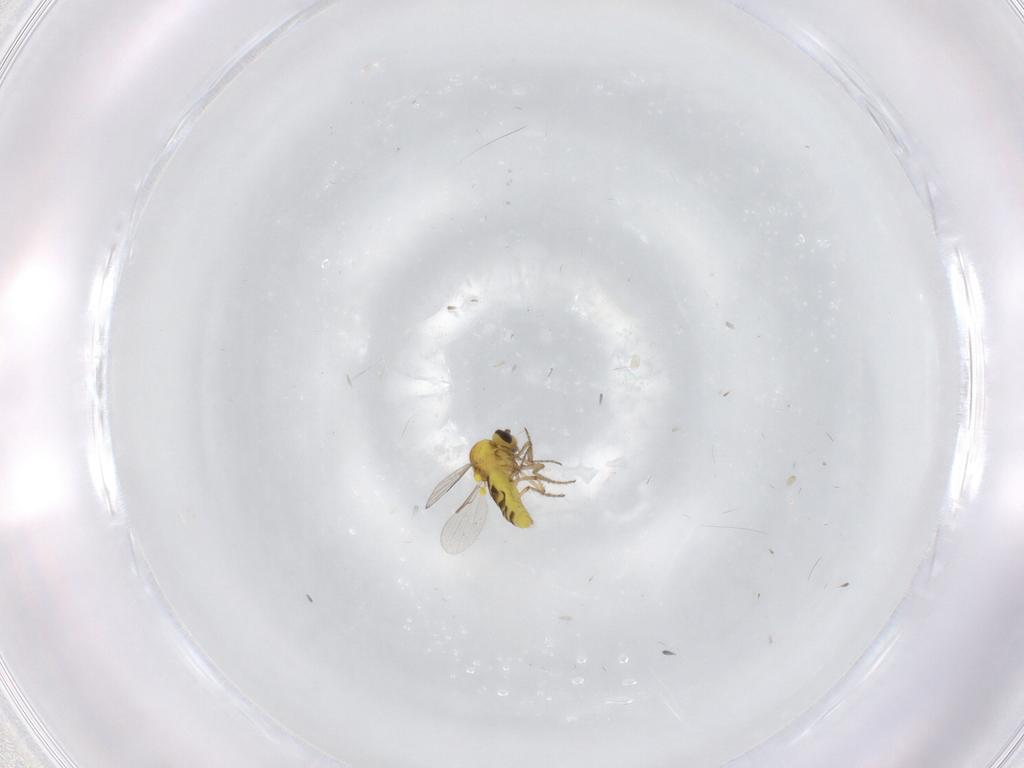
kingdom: Animalia
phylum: Arthropoda
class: Insecta
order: Diptera
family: Ceratopogonidae
